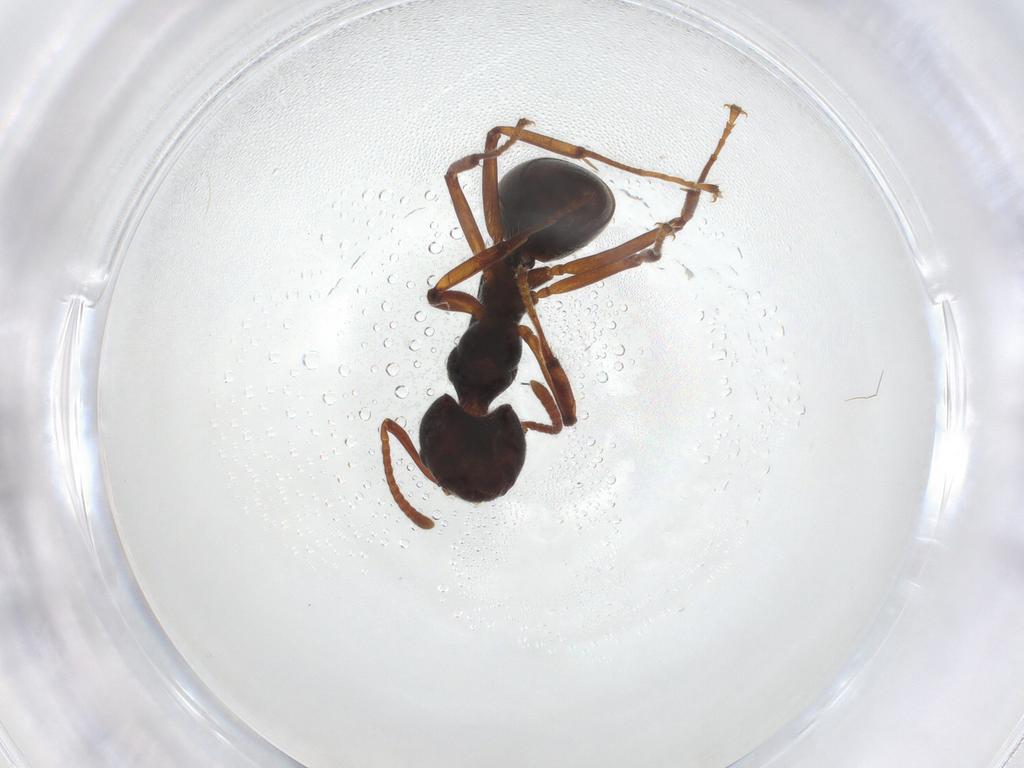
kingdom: Animalia
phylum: Arthropoda
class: Insecta
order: Hymenoptera
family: Formicidae
